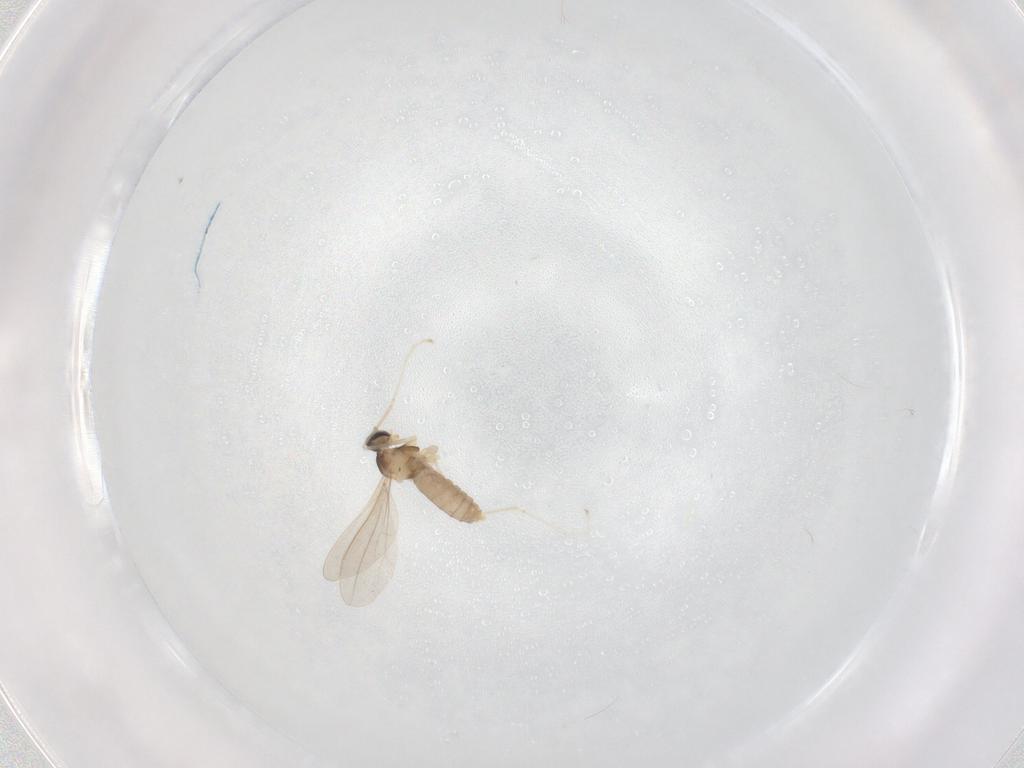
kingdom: Animalia
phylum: Arthropoda
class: Insecta
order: Diptera
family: Cecidomyiidae
